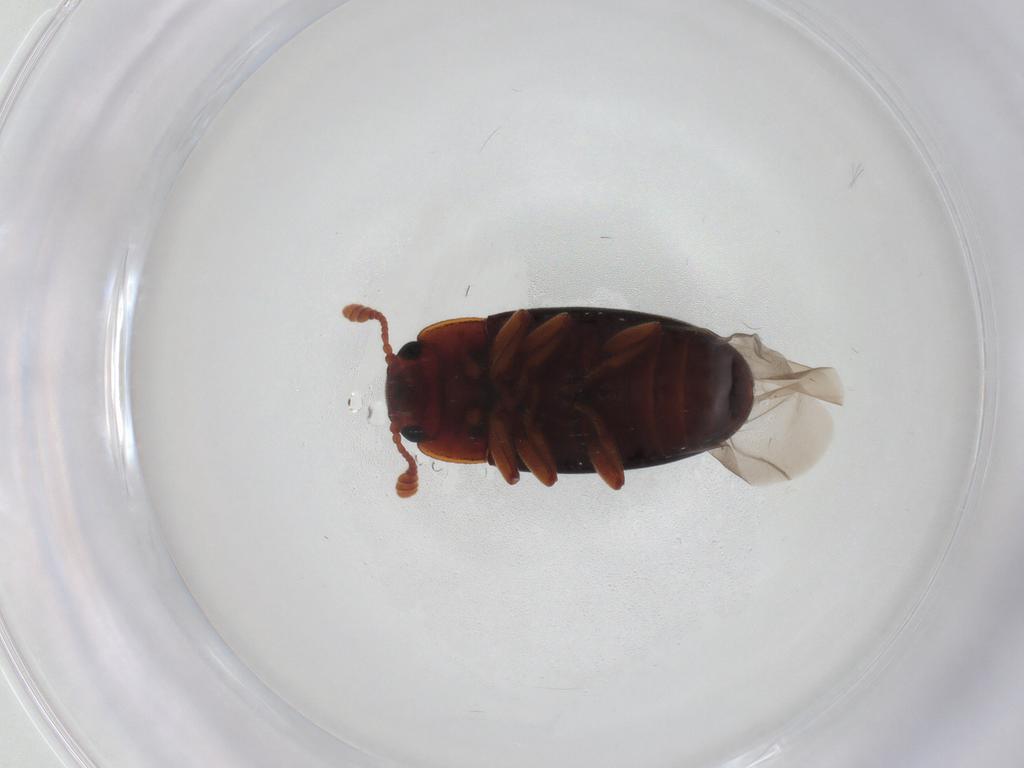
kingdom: Animalia
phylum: Arthropoda
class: Insecta
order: Coleoptera
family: Erotylidae
